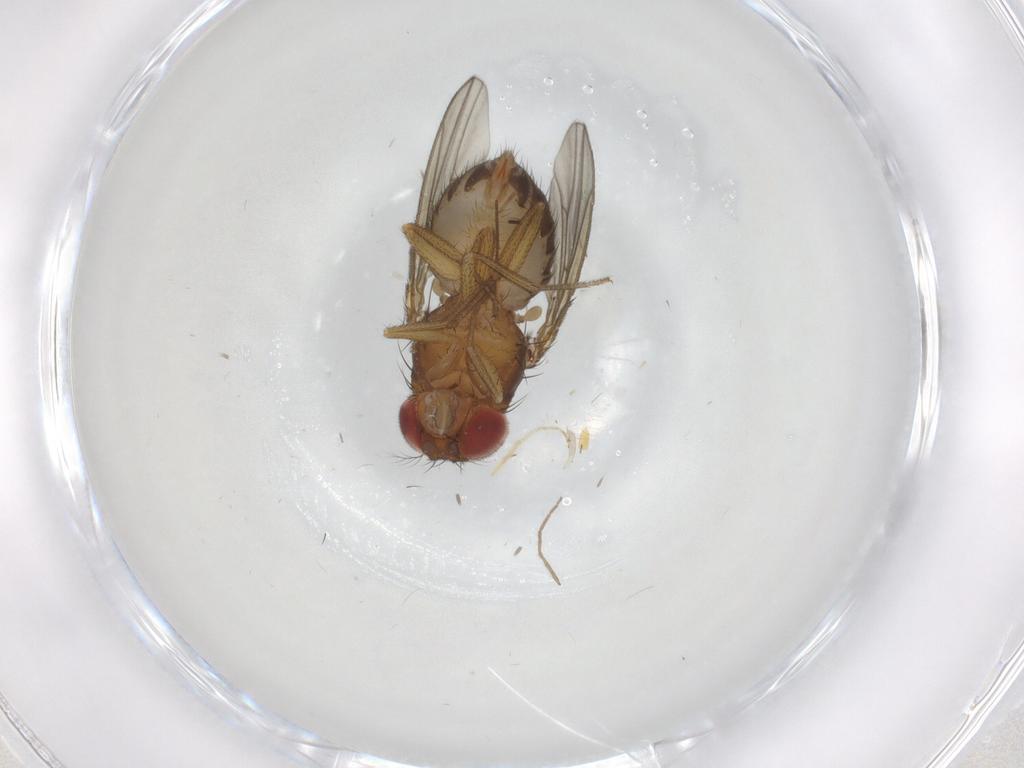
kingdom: Animalia
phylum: Arthropoda
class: Insecta
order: Diptera
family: Drosophilidae
